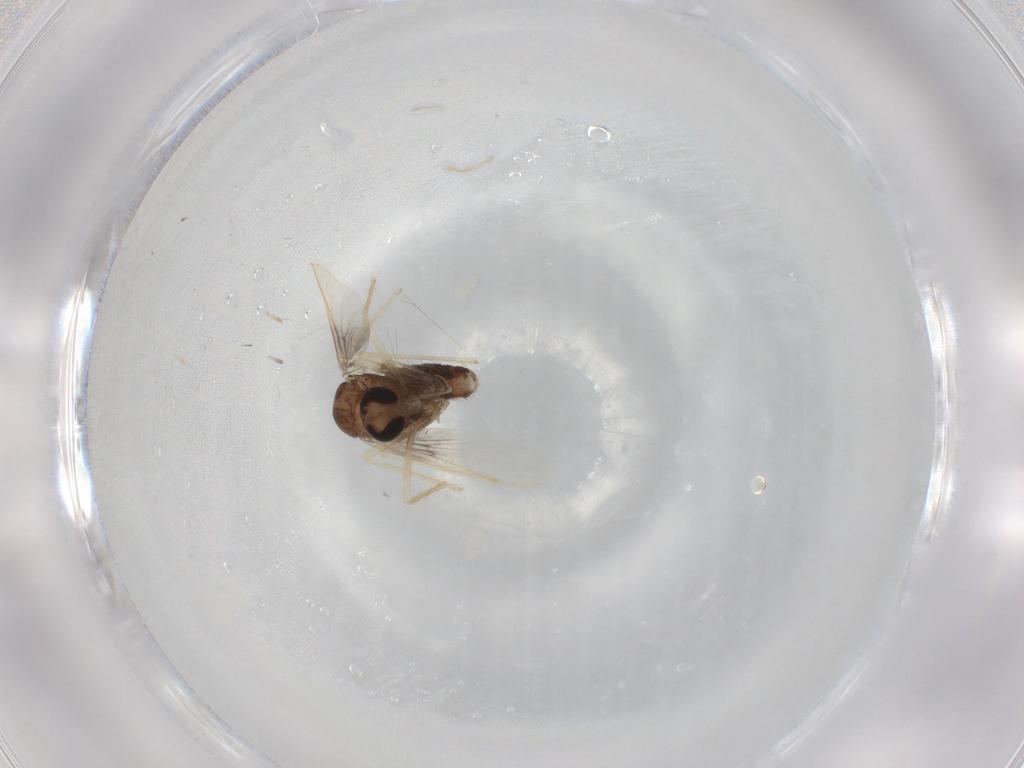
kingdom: Animalia
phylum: Arthropoda
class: Insecta
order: Diptera
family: Chironomidae
